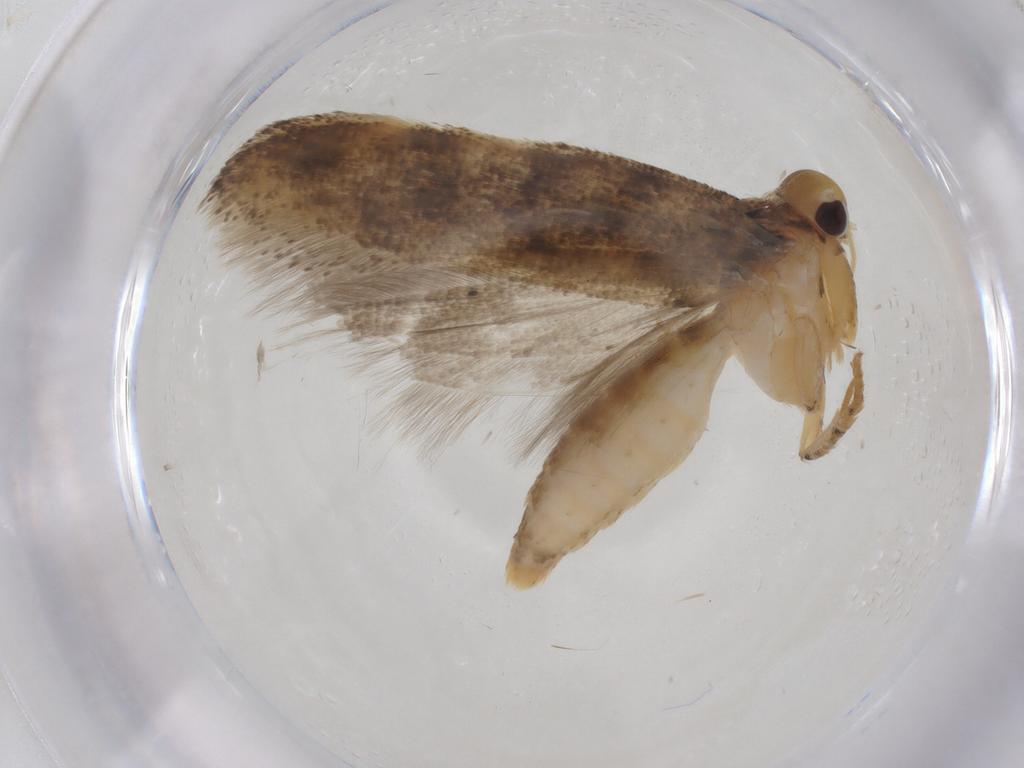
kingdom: Animalia
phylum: Arthropoda
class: Insecta
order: Lepidoptera
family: Gelechiidae
